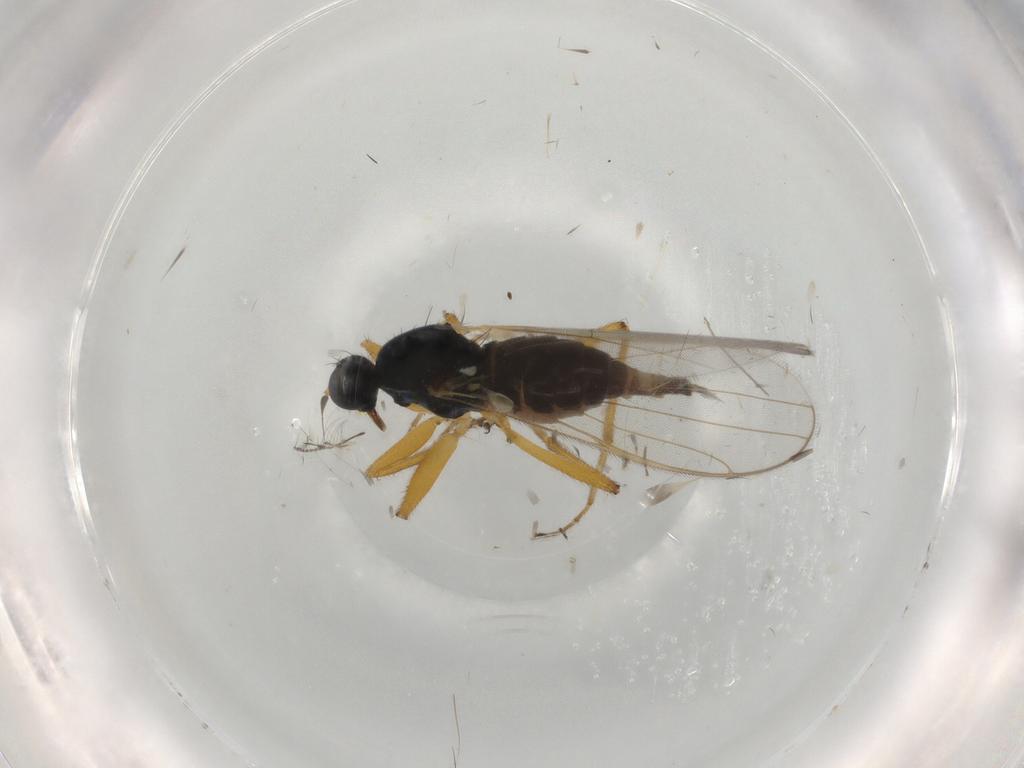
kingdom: Animalia
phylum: Arthropoda
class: Insecta
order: Diptera
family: Hybotidae
